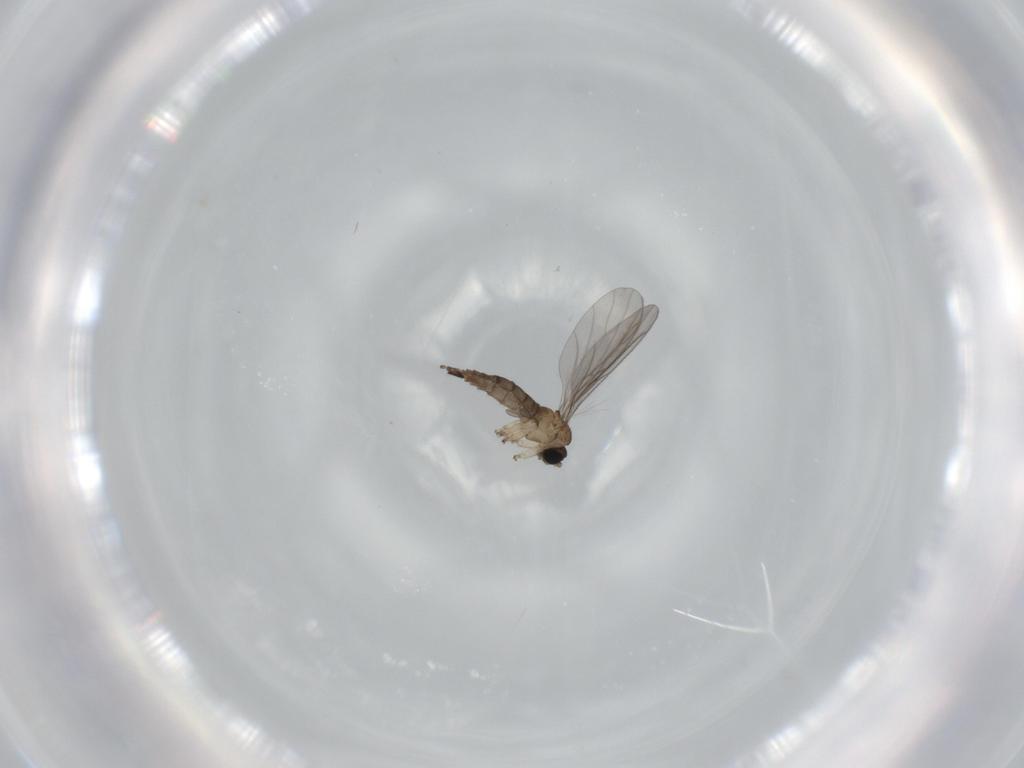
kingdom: Animalia
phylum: Arthropoda
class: Insecta
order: Diptera
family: Sciaridae
